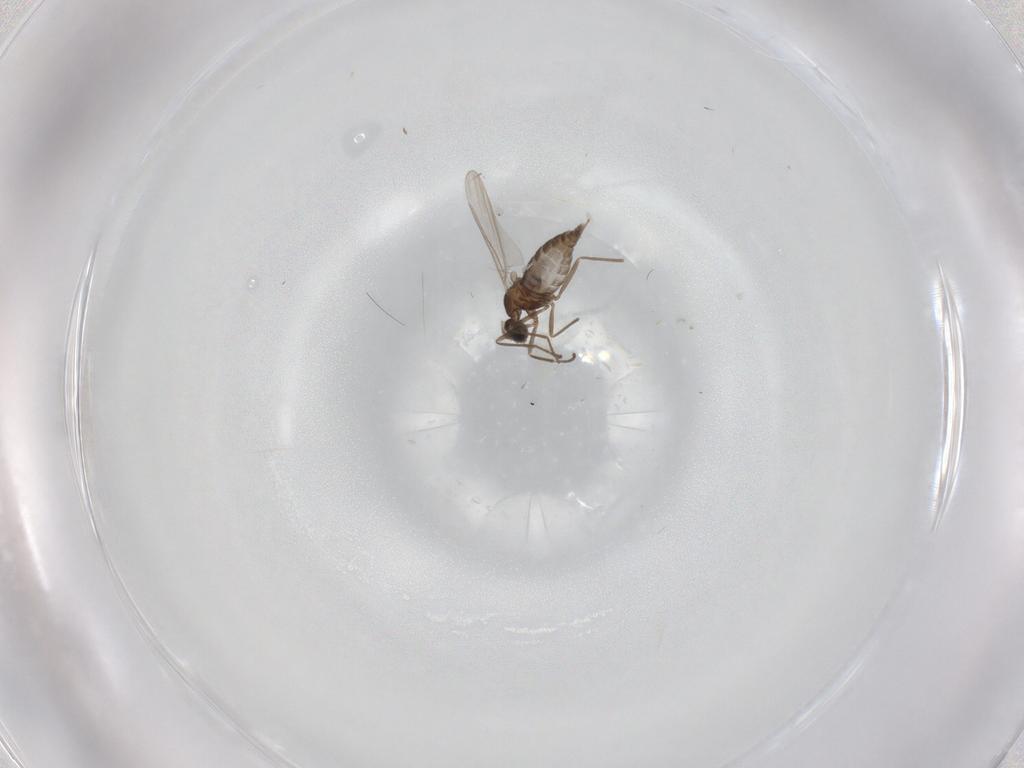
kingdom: Animalia
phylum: Arthropoda
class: Insecta
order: Diptera
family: Cecidomyiidae
